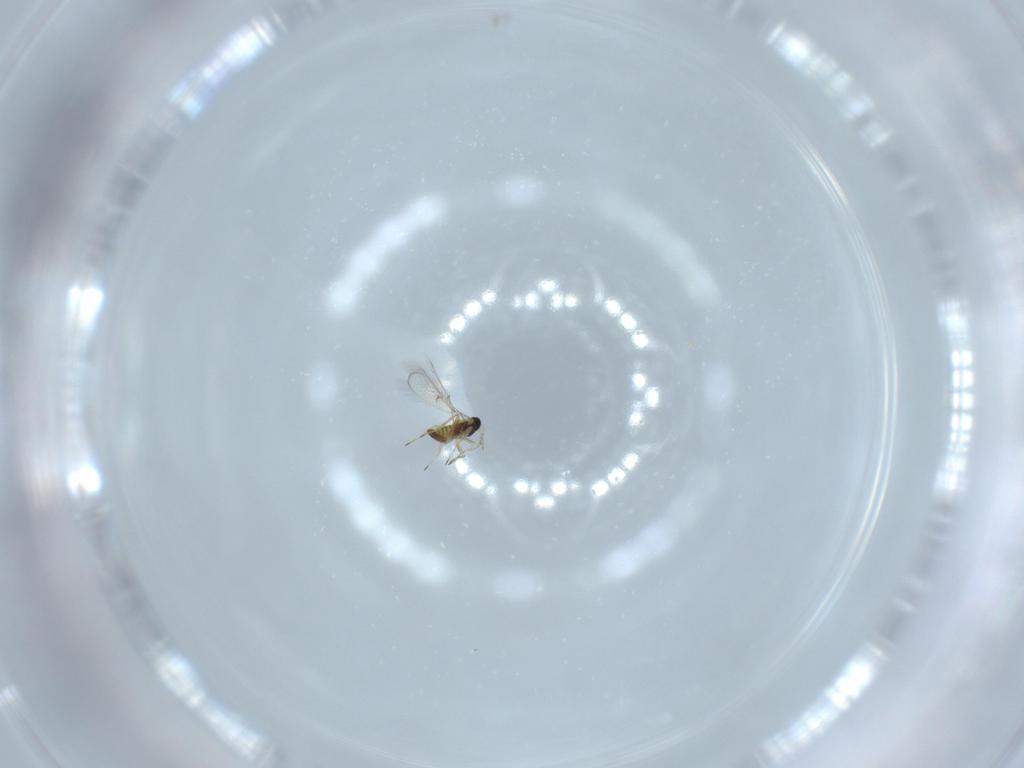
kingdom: Animalia
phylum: Arthropoda
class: Insecta
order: Hymenoptera
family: Trichogrammatidae
